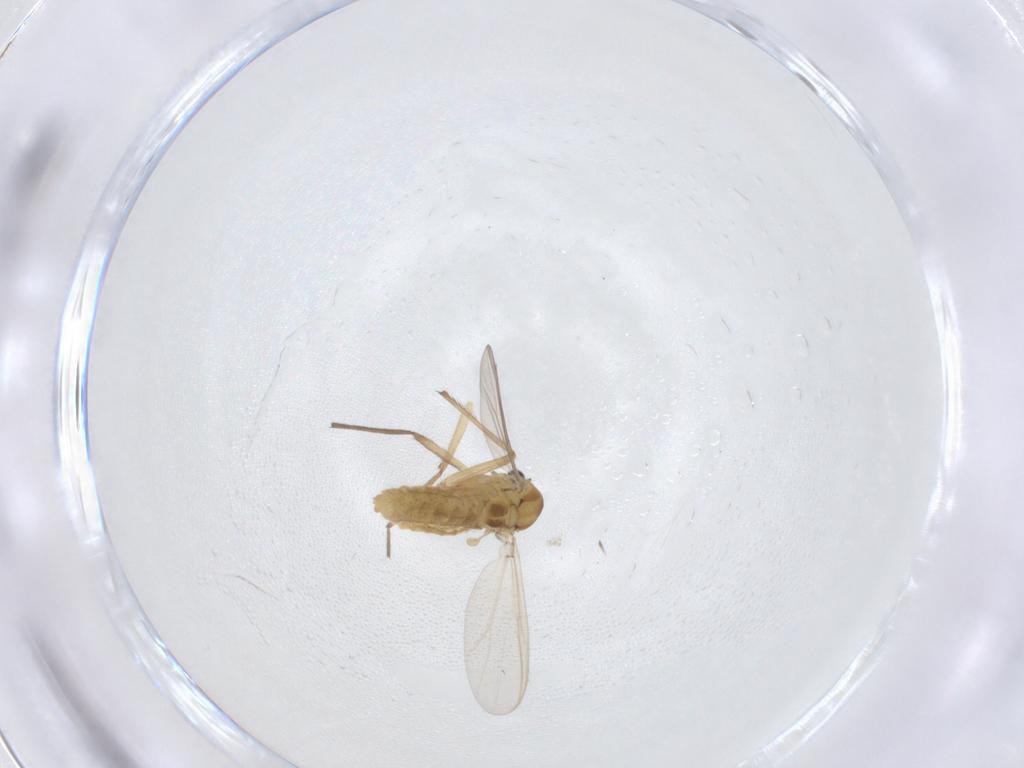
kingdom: Animalia
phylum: Arthropoda
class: Insecta
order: Diptera
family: Chironomidae
